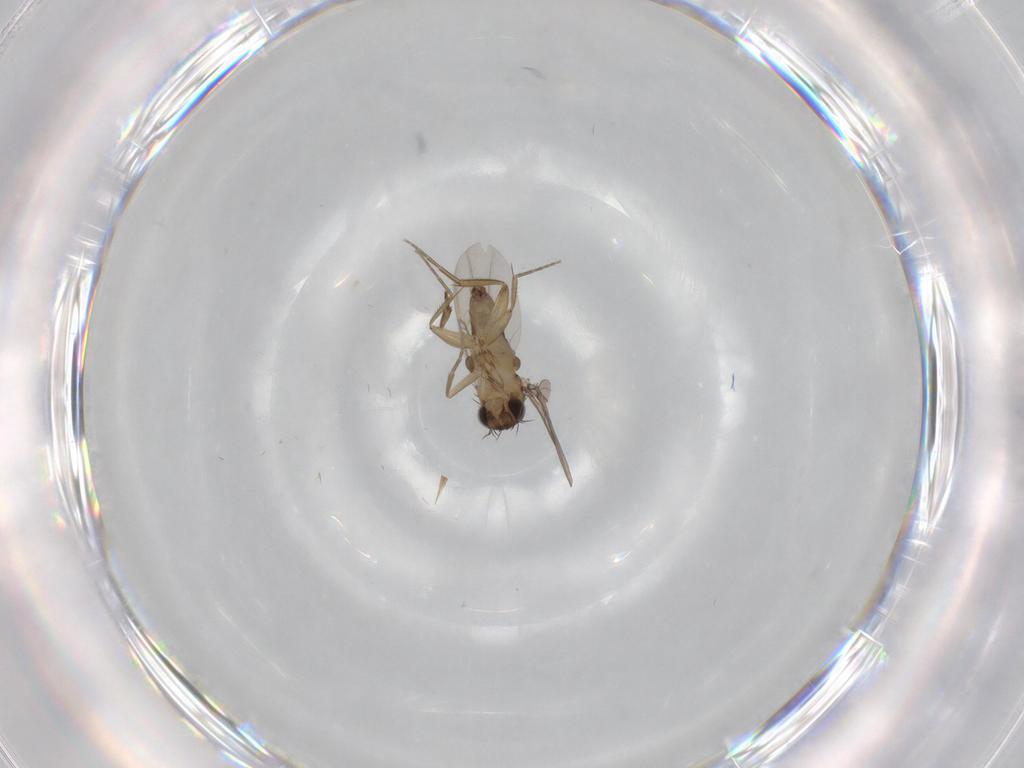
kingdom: Animalia
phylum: Arthropoda
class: Insecta
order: Diptera
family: Phoridae
